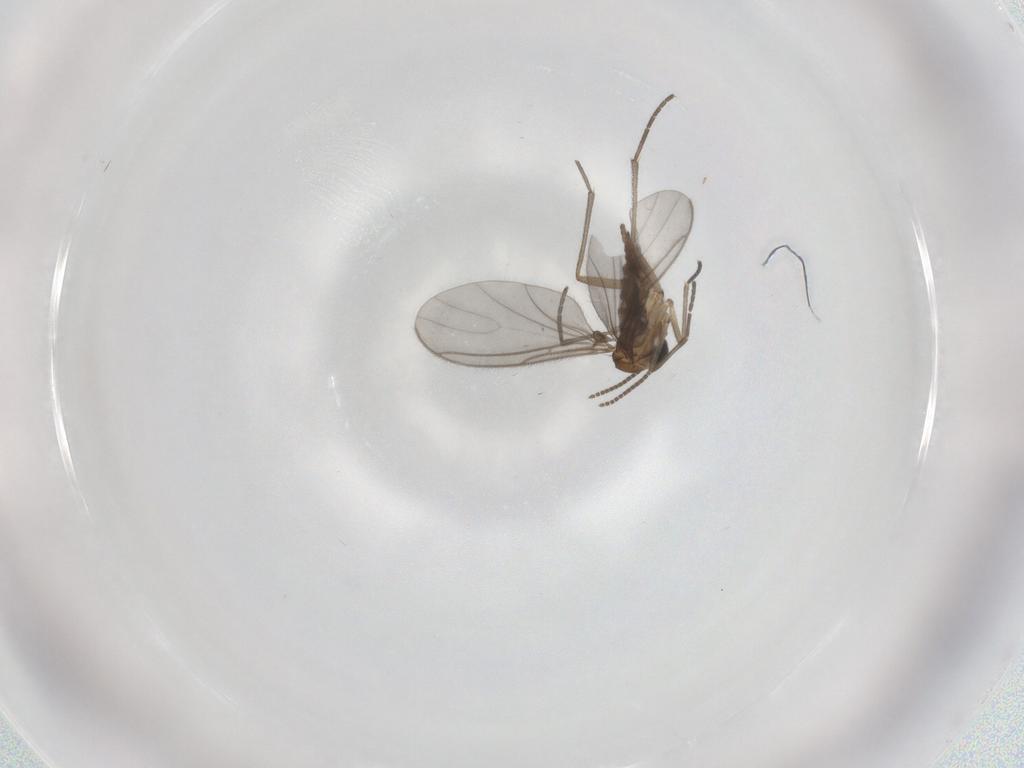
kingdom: Animalia
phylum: Arthropoda
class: Insecta
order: Diptera
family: Sciaridae
